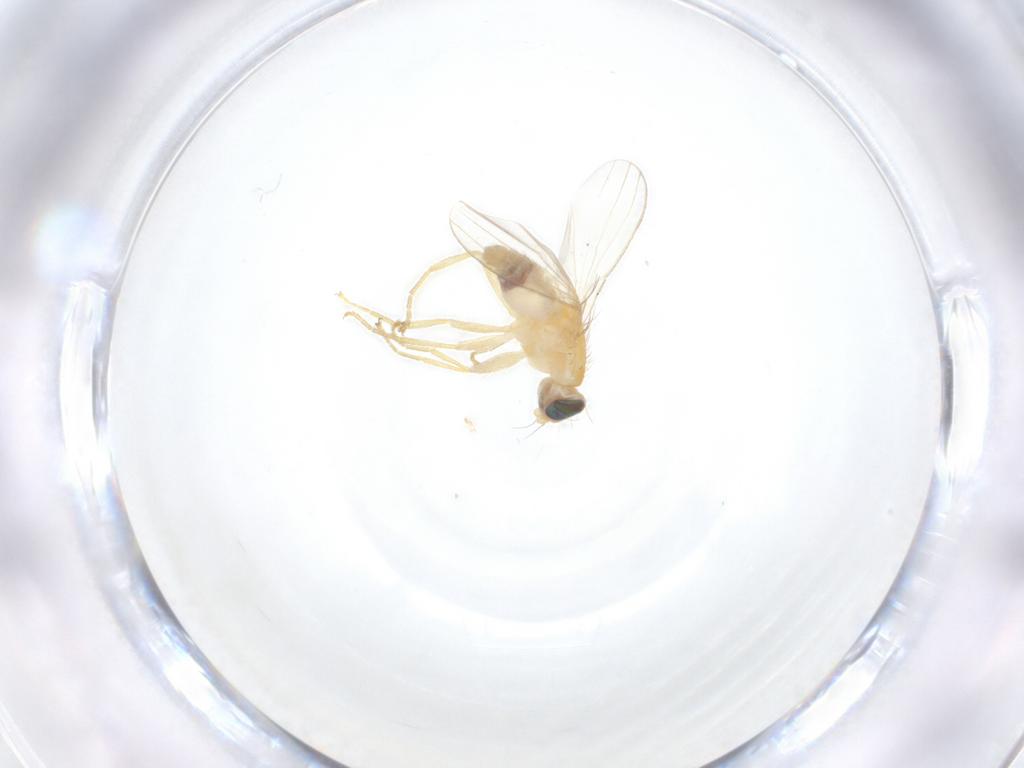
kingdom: Animalia
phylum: Arthropoda
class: Insecta
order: Diptera
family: Chyromyidae
